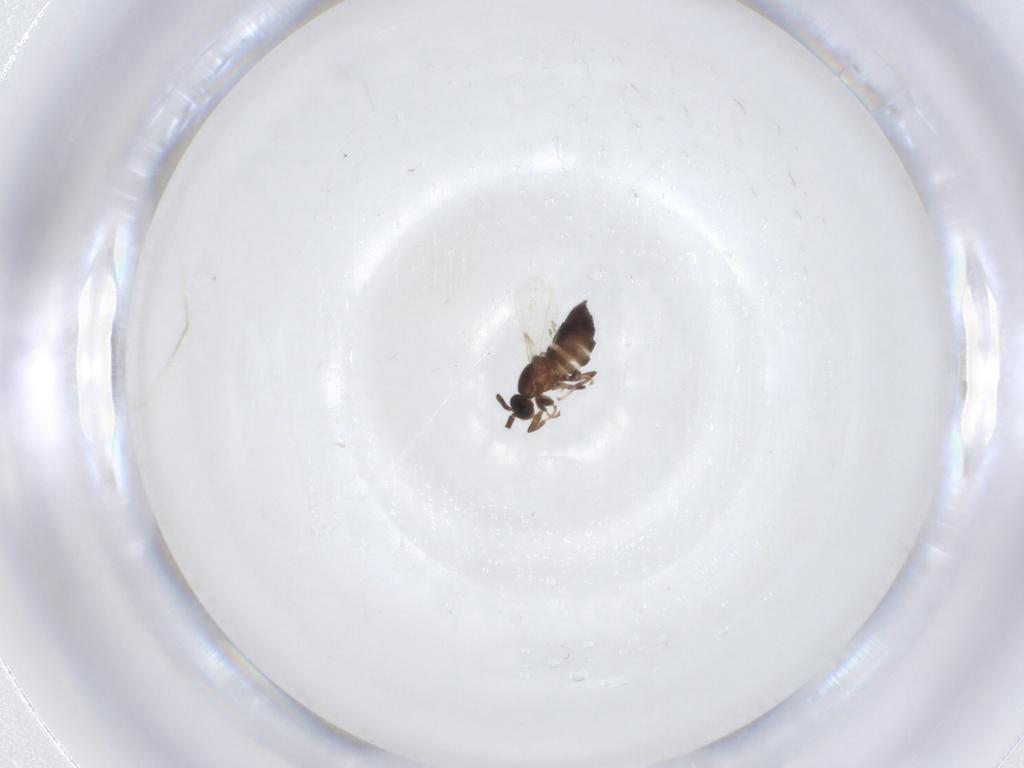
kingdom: Animalia
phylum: Arthropoda
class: Insecta
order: Diptera
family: Scatopsidae
